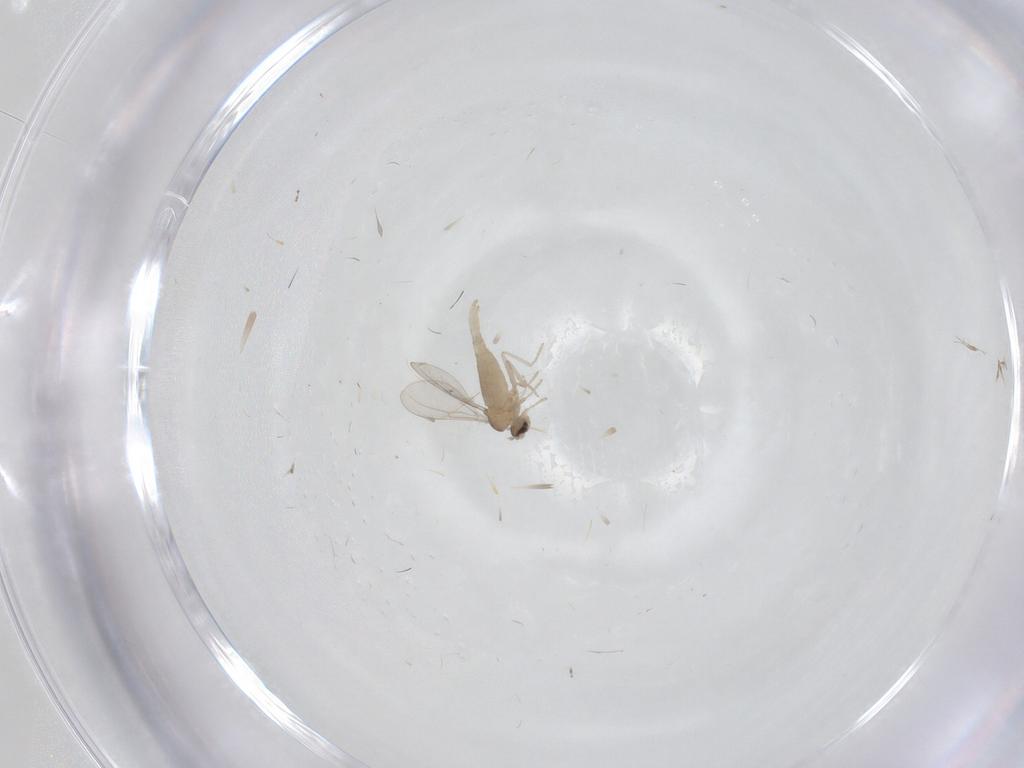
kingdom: Animalia
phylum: Arthropoda
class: Insecta
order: Diptera
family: Cecidomyiidae
